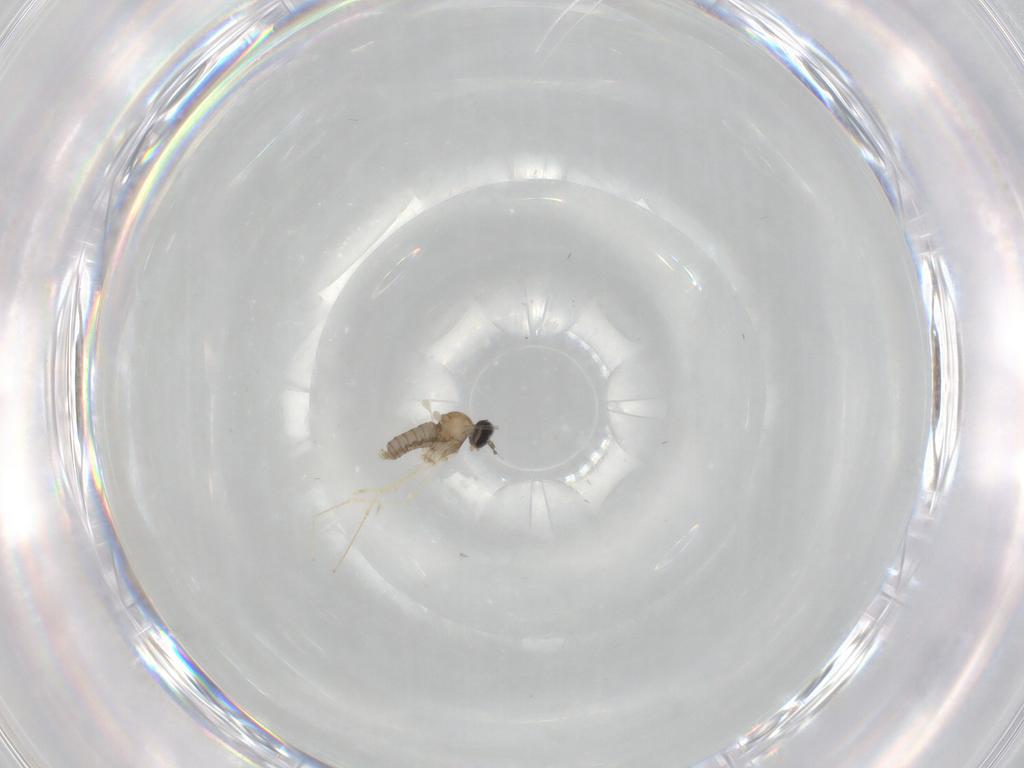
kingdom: Animalia
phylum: Arthropoda
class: Insecta
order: Diptera
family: Cecidomyiidae
